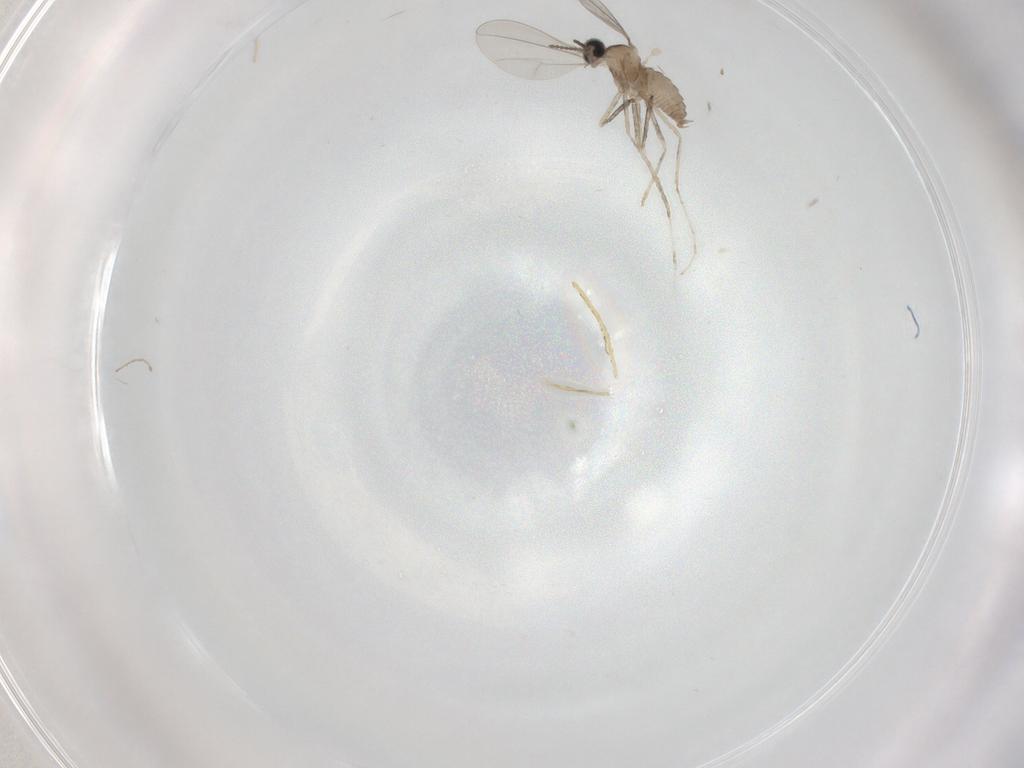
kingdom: Animalia
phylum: Arthropoda
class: Insecta
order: Diptera
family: Cecidomyiidae
